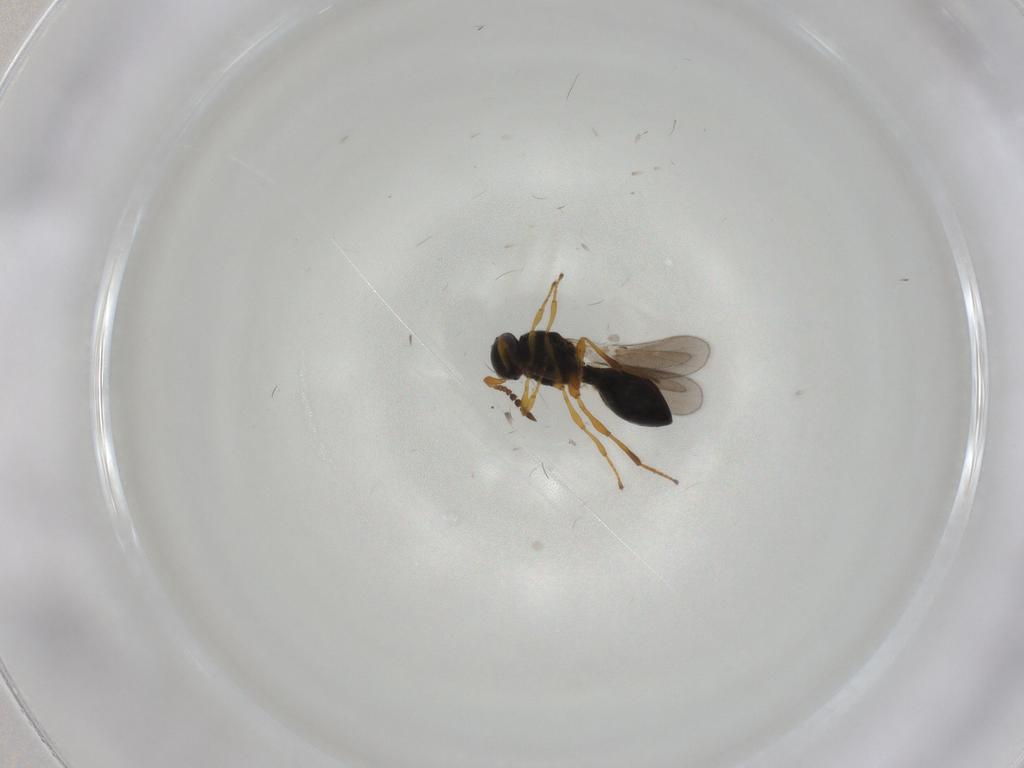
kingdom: Animalia
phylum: Arthropoda
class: Insecta
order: Hymenoptera
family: Platygastridae
